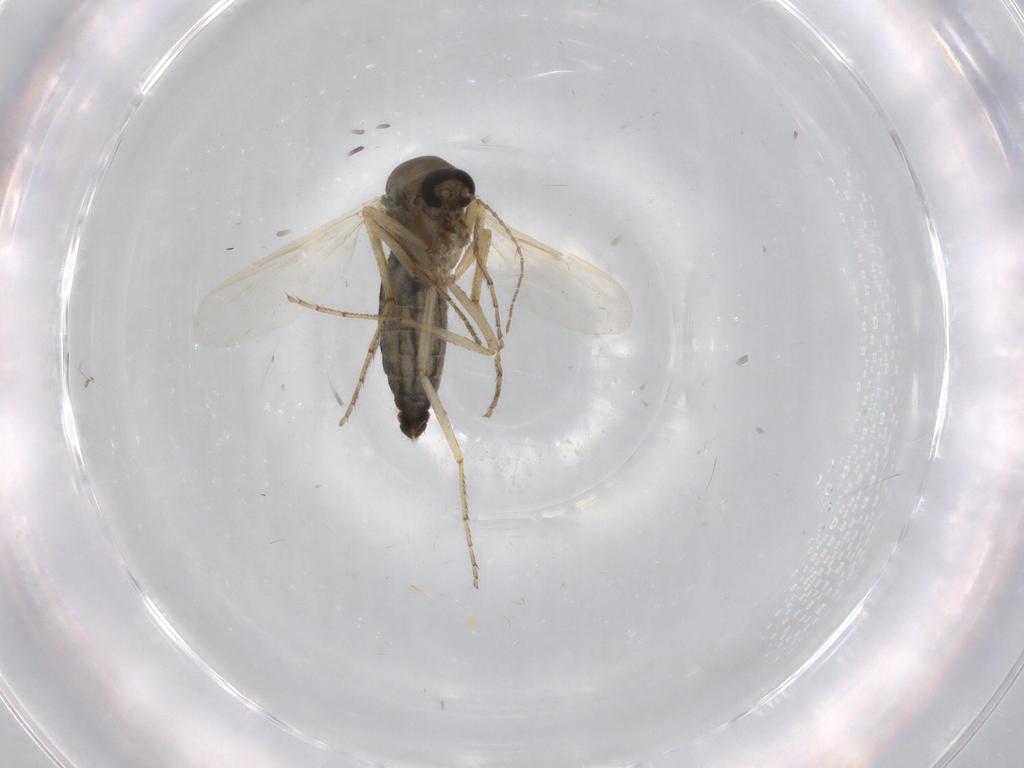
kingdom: Animalia
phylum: Arthropoda
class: Insecta
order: Diptera
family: Ceratopogonidae
